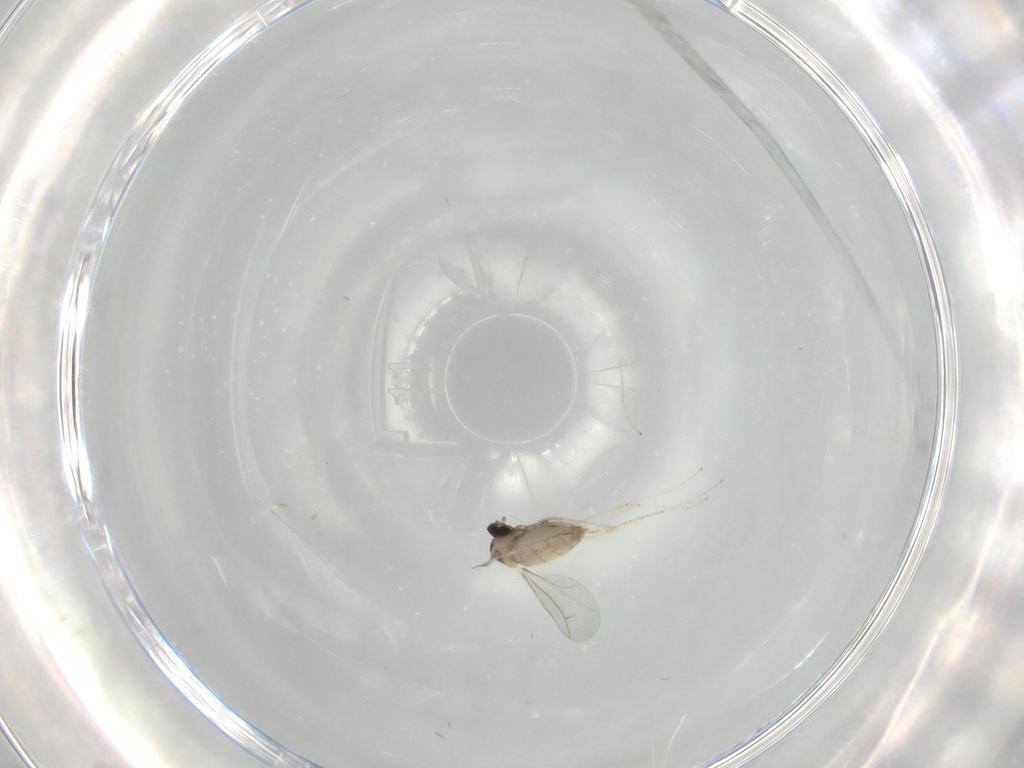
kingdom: Animalia
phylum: Arthropoda
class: Insecta
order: Diptera
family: Cecidomyiidae
